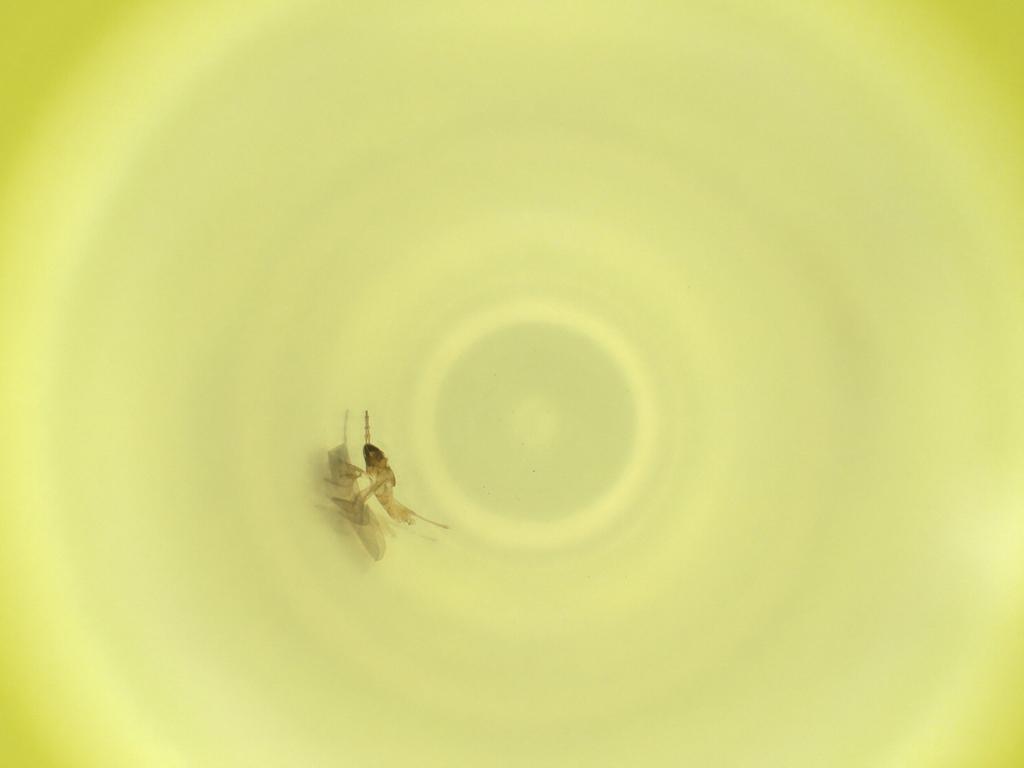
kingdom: Animalia
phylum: Arthropoda
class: Insecta
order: Diptera
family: Cecidomyiidae
